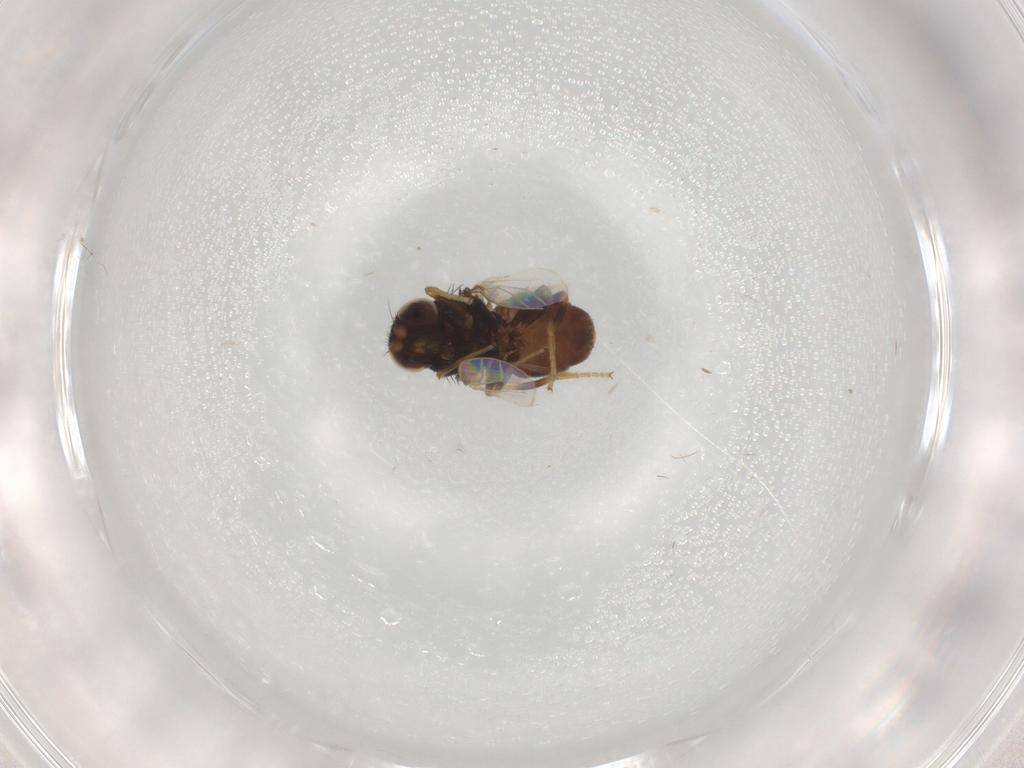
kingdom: Animalia
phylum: Arthropoda
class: Insecta
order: Diptera
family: Chloropidae
